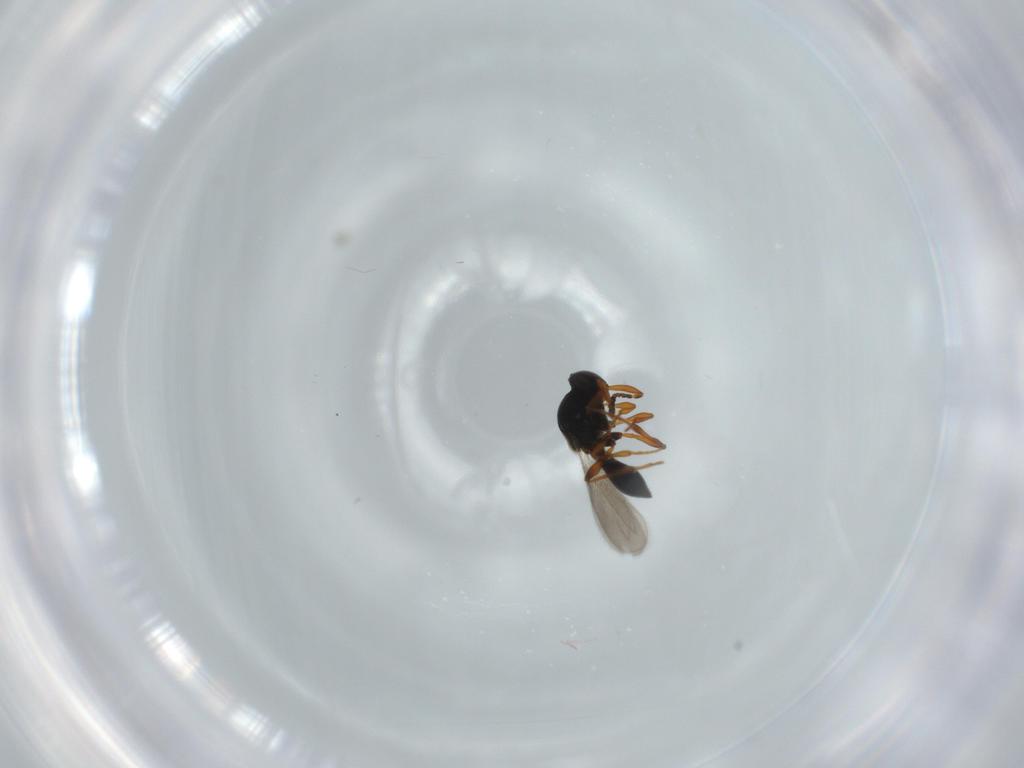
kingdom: Animalia
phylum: Arthropoda
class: Insecta
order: Hymenoptera
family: Platygastridae
